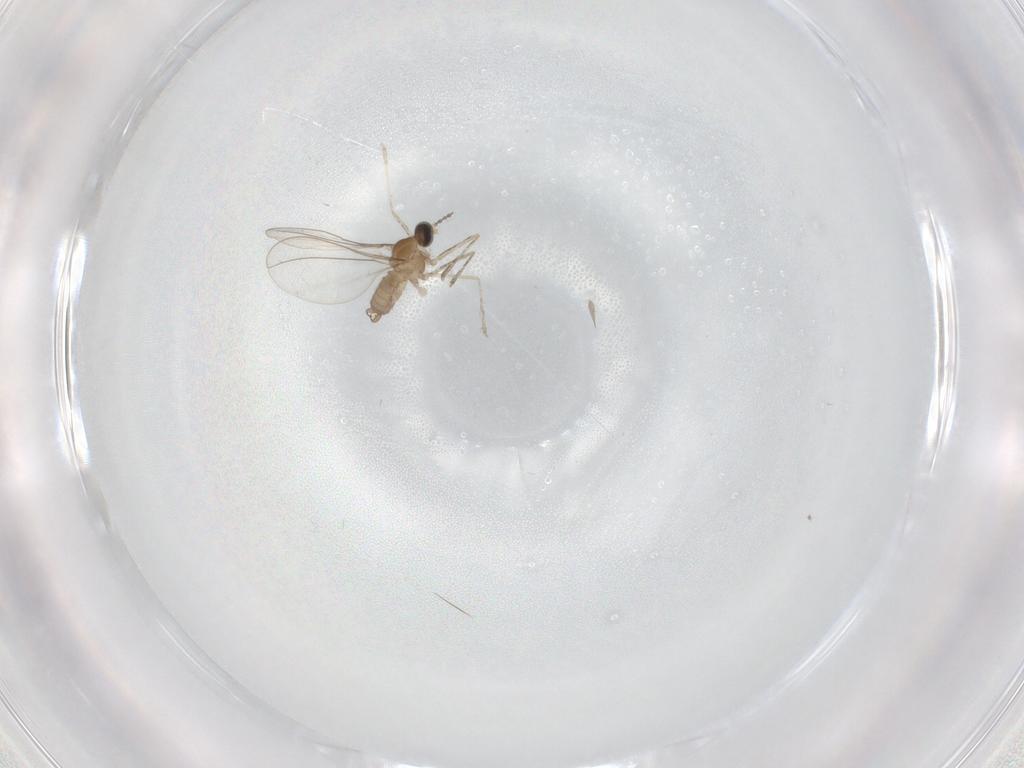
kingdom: Animalia
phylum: Arthropoda
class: Insecta
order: Diptera
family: Cecidomyiidae
